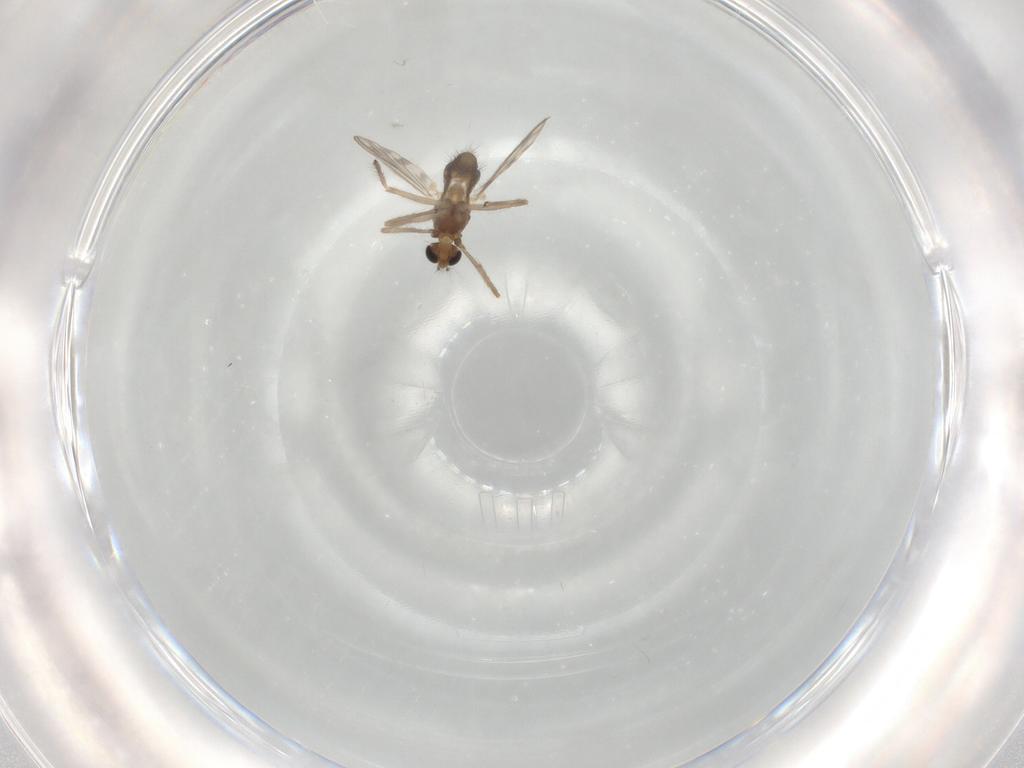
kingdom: Animalia
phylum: Arthropoda
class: Insecta
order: Diptera
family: Chironomidae
